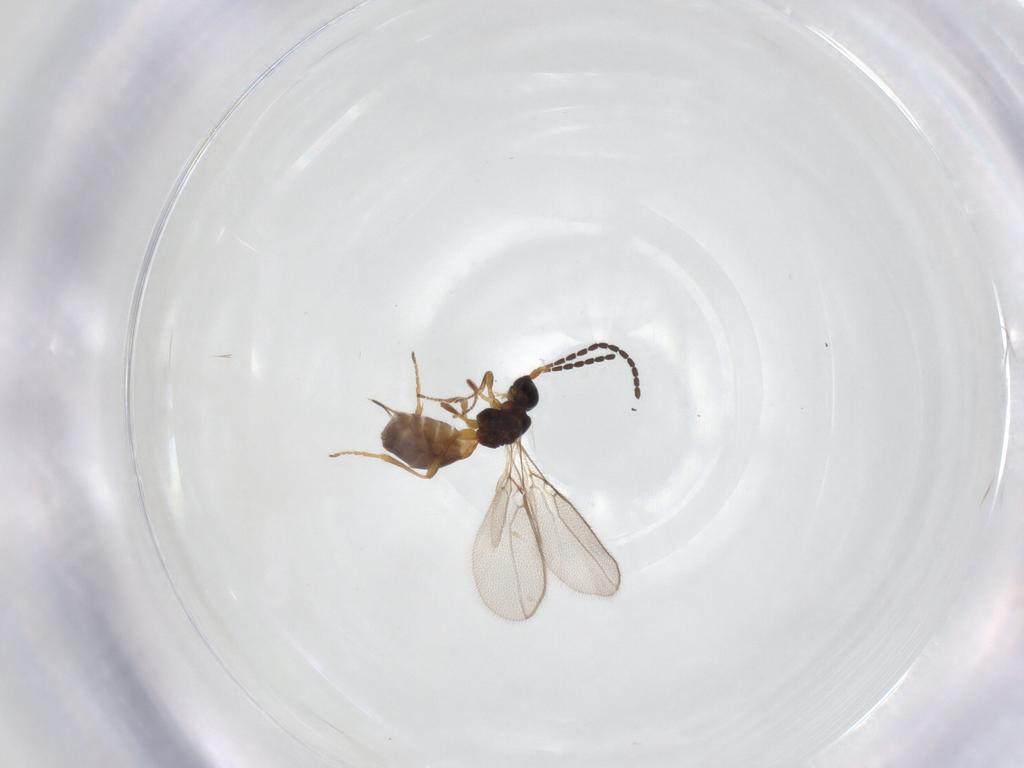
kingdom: Animalia
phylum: Arthropoda
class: Insecta
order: Hymenoptera
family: Braconidae
